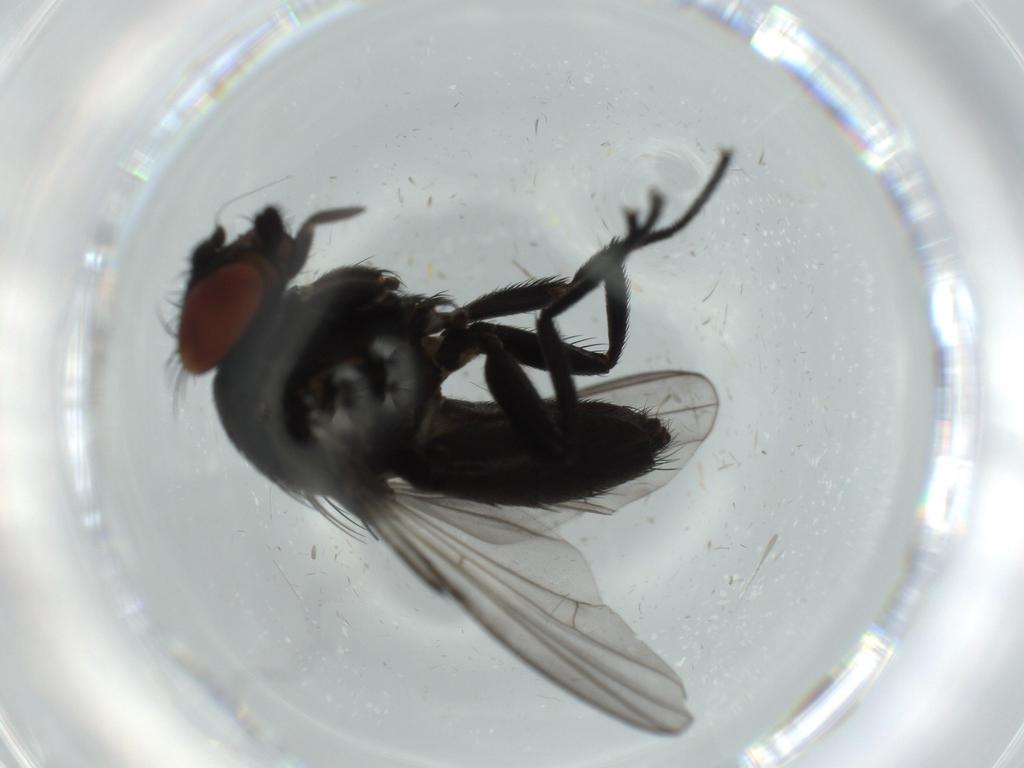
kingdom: Animalia
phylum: Arthropoda
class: Insecta
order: Diptera
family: Milichiidae
